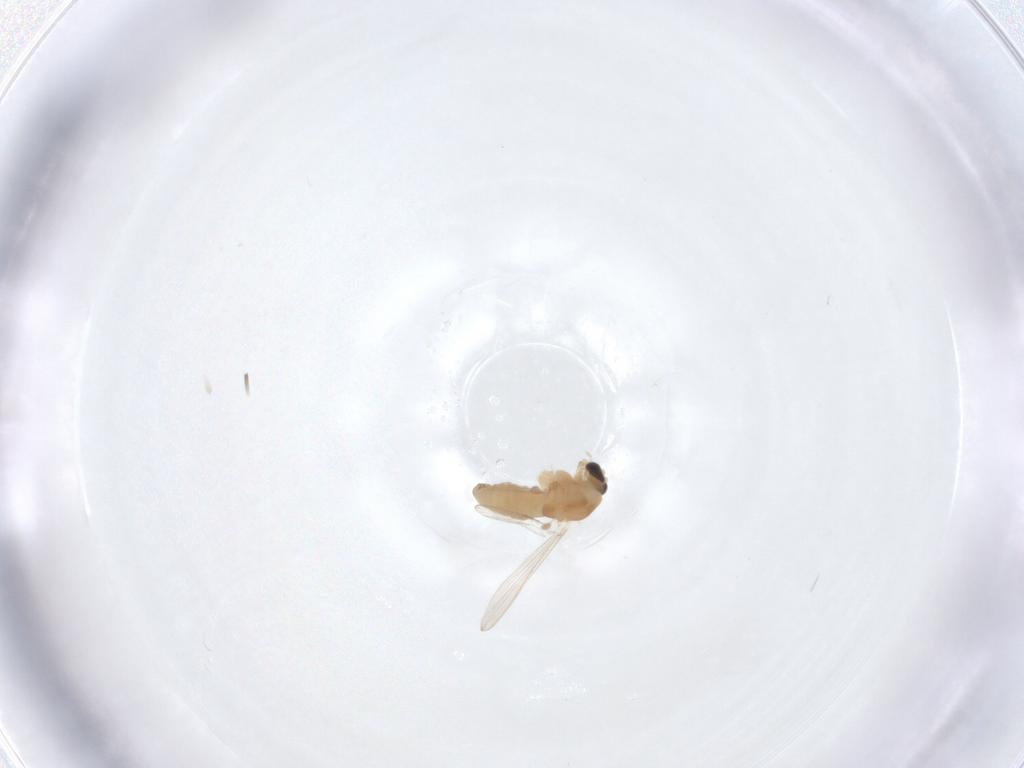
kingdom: Animalia
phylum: Arthropoda
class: Insecta
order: Diptera
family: Chironomidae
